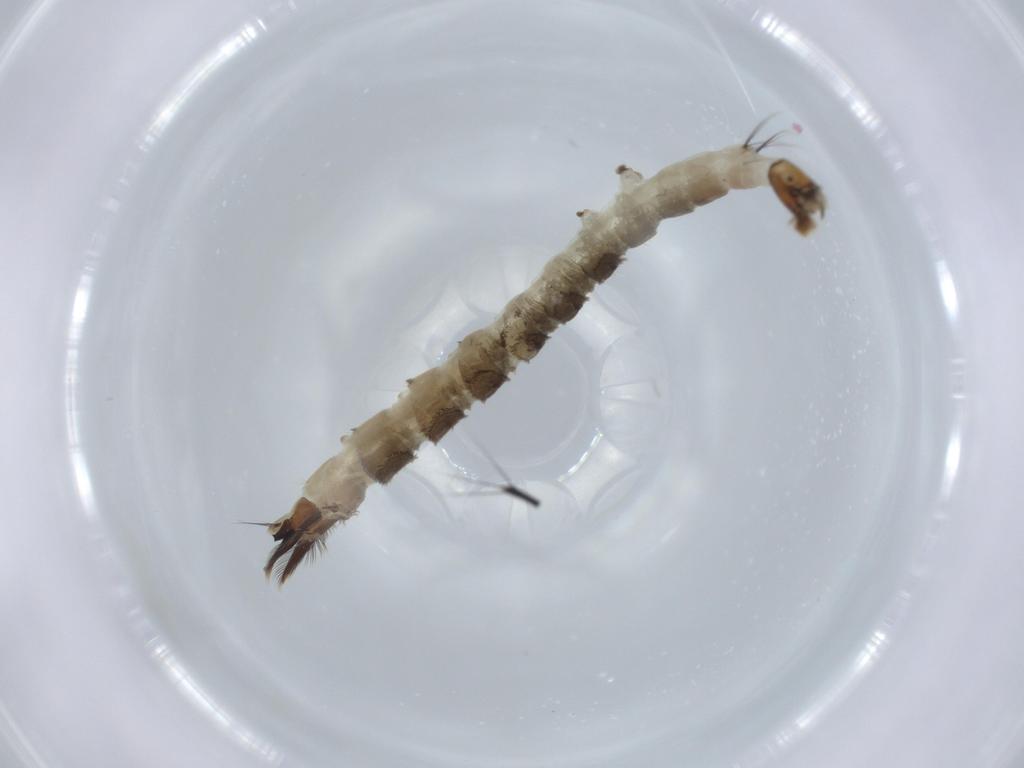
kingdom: Animalia
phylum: Arthropoda
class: Insecta
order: Diptera
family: Dixidae
